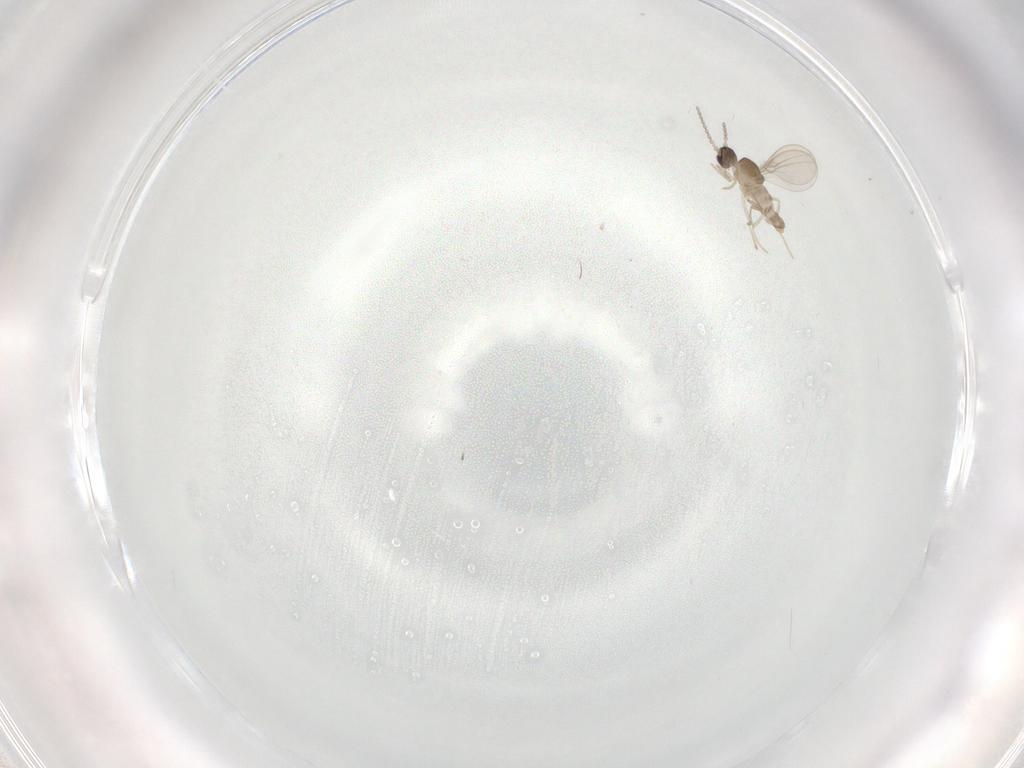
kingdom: Animalia
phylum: Arthropoda
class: Insecta
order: Diptera
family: Cecidomyiidae
